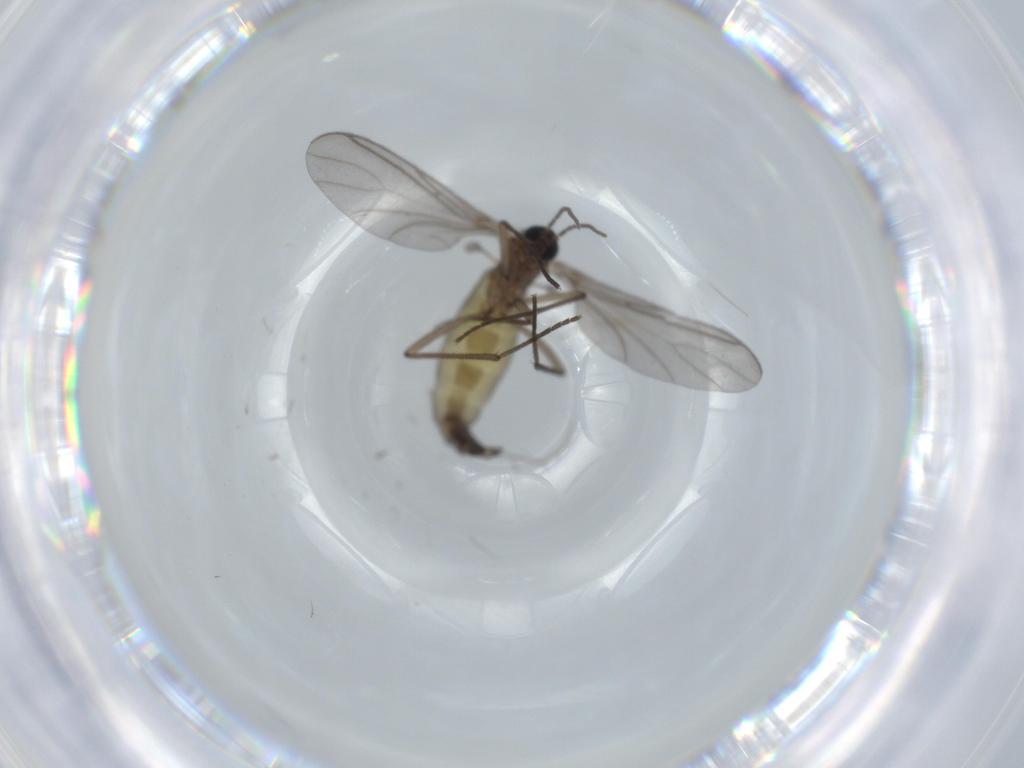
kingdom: Animalia
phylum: Arthropoda
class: Insecta
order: Diptera
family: Sciaridae
